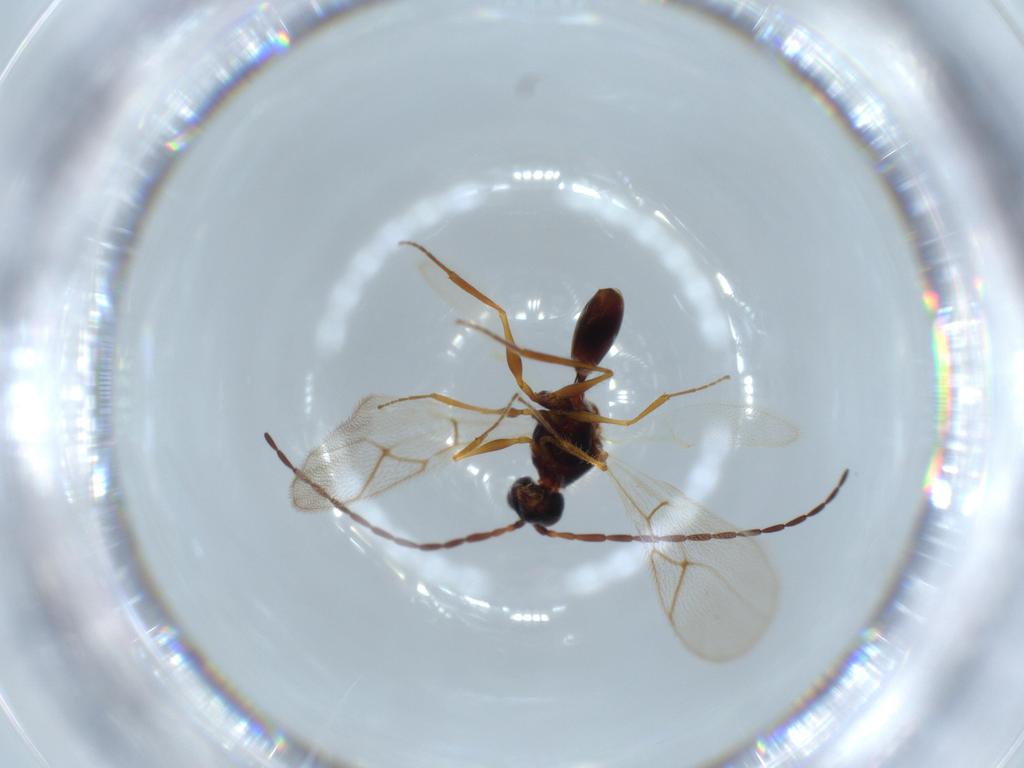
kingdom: Animalia
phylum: Arthropoda
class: Insecta
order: Hymenoptera
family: Figitidae
